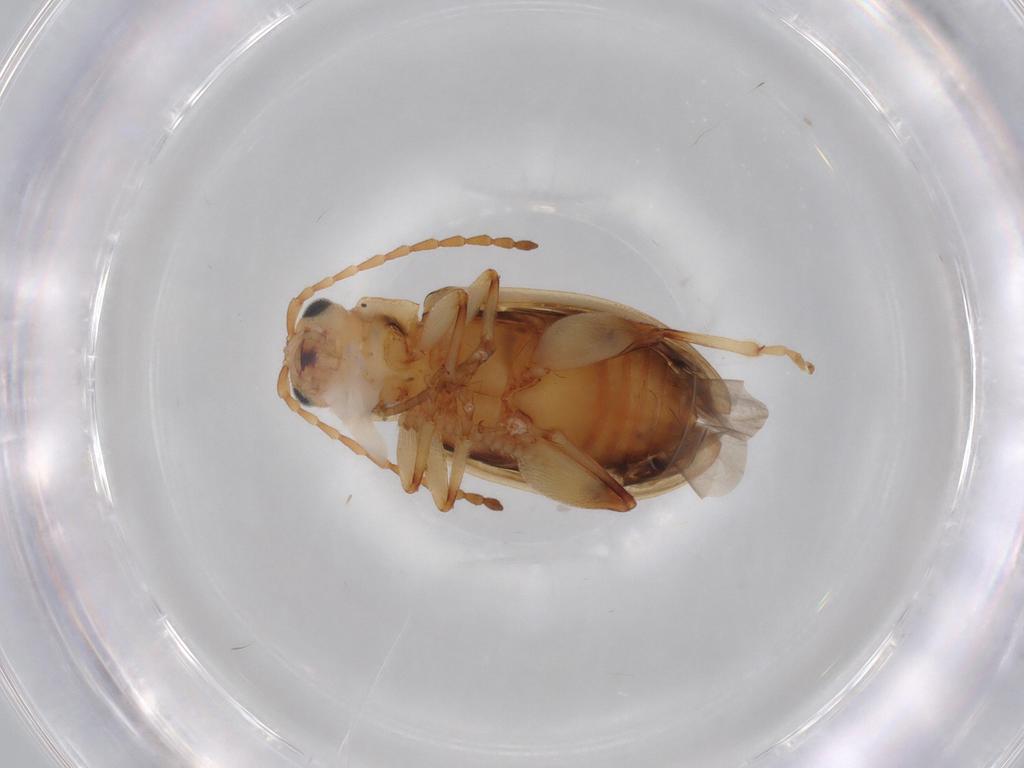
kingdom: Animalia
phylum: Arthropoda
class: Insecta
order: Coleoptera
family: Chrysomelidae
